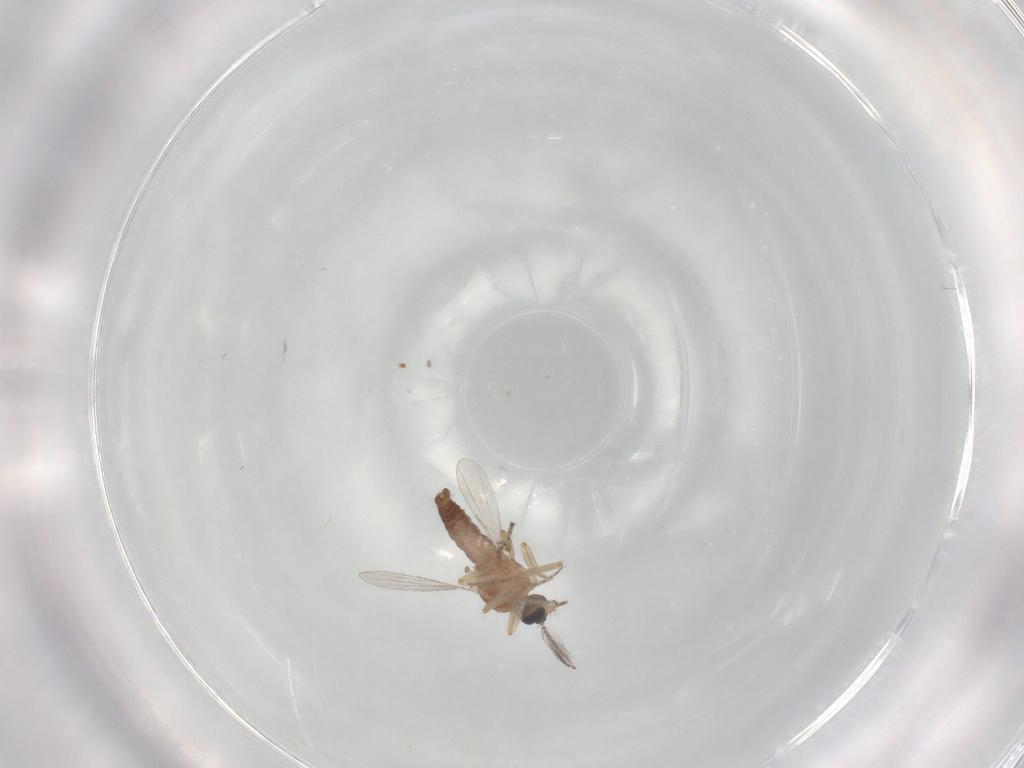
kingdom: Animalia
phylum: Arthropoda
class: Insecta
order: Diptera
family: Ceratopogonidae
